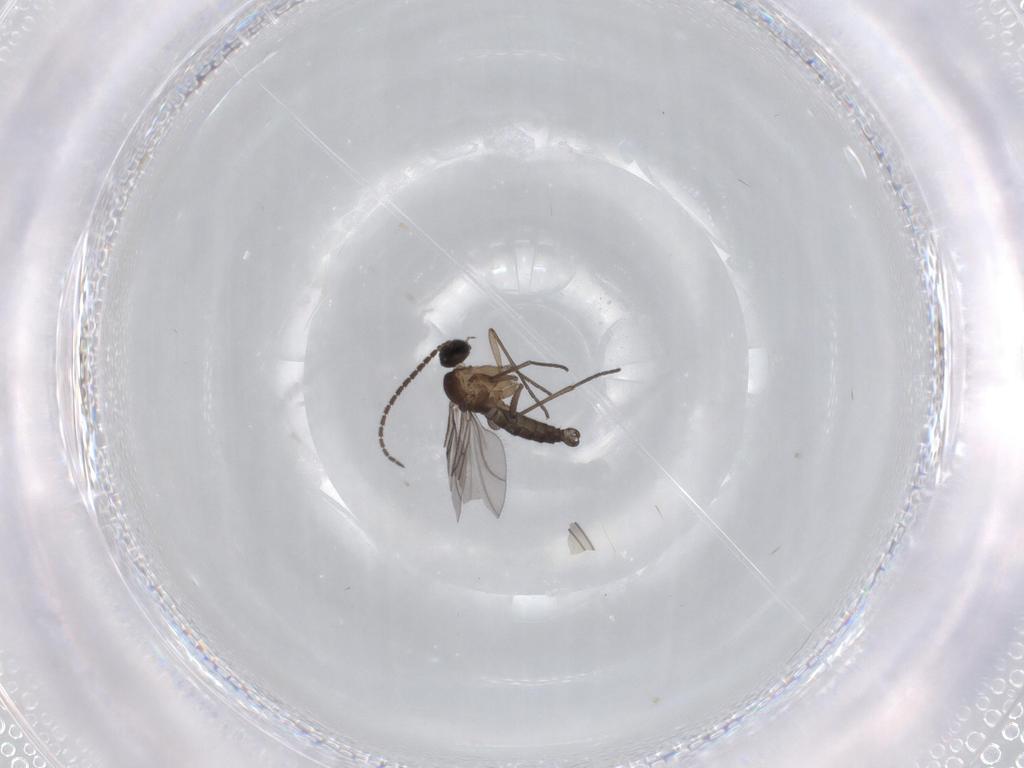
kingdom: Animalia
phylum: Arthropoda
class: Insecta
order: Diptera
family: Sciaridae
